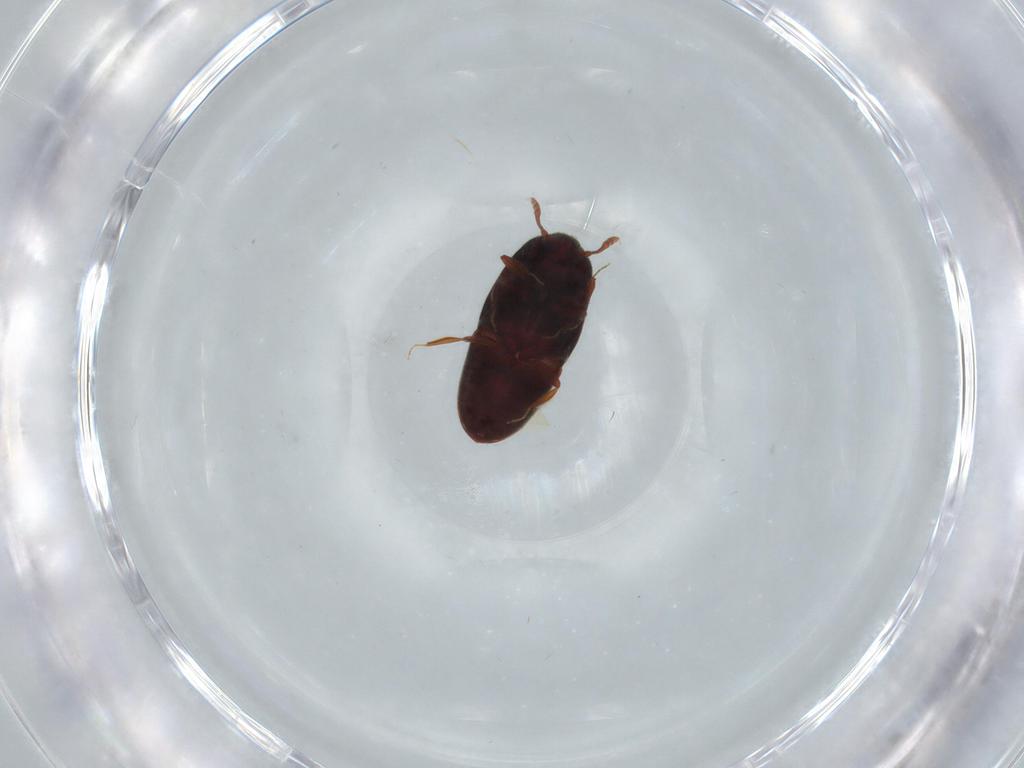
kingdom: Animalia
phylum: Arthropoda
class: Insecta
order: Coleoptera
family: Throscidae
